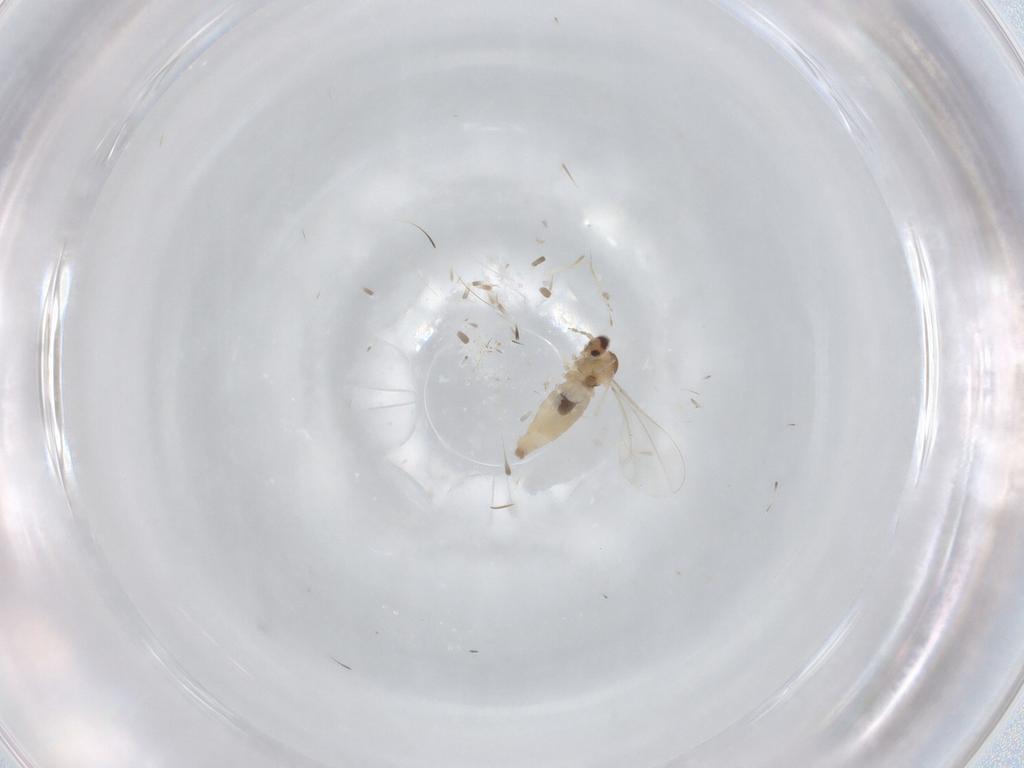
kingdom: Animalia
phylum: Arthropoda
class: Insecta
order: Diptera
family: Cecidomyiidae
